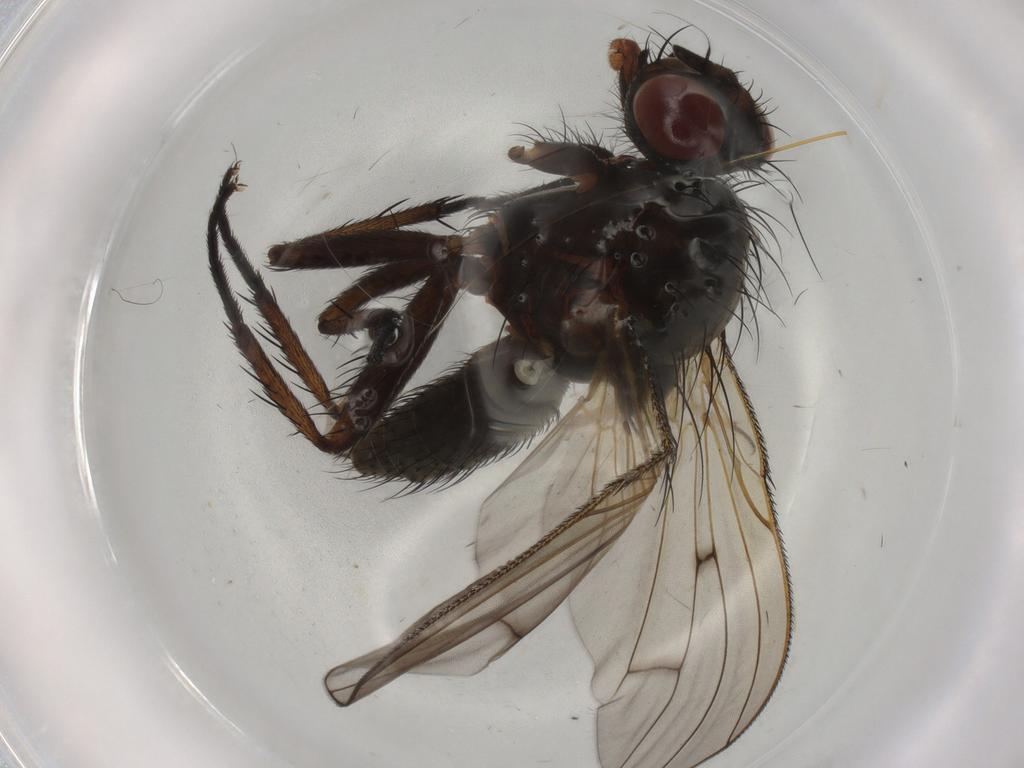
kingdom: Animalia
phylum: Arthropoda
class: Insecta
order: Diptera
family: Anthomyiidae
